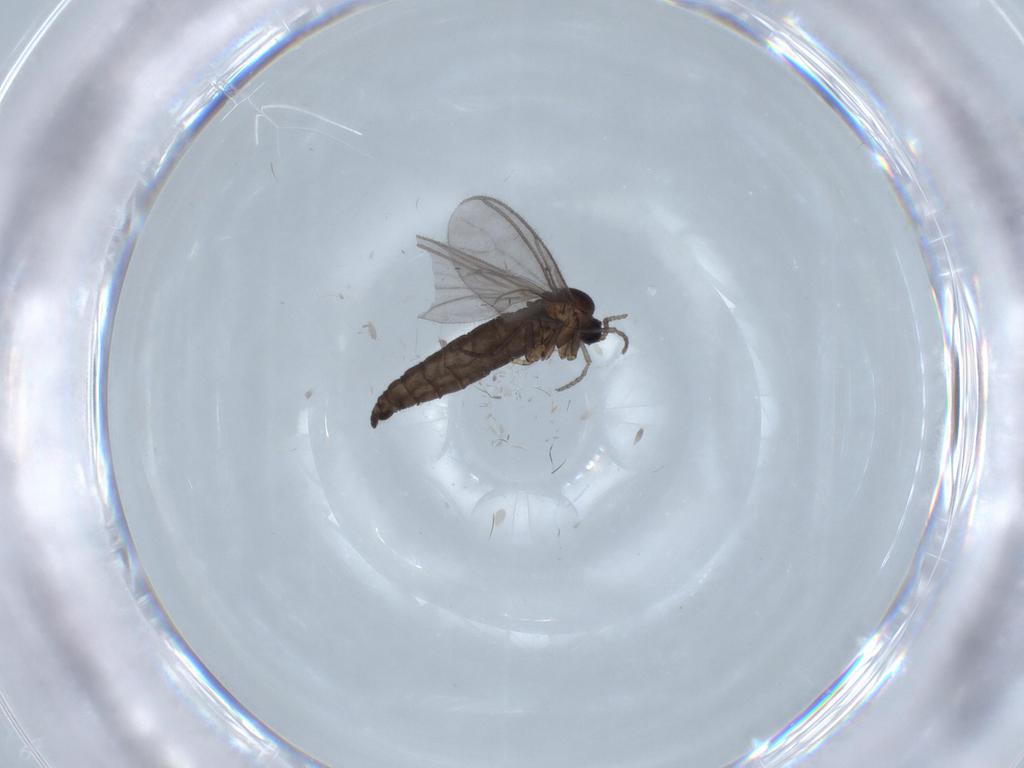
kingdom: Animalia
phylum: Arthropoda
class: Insecta
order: Diptera
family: Sciaridae
